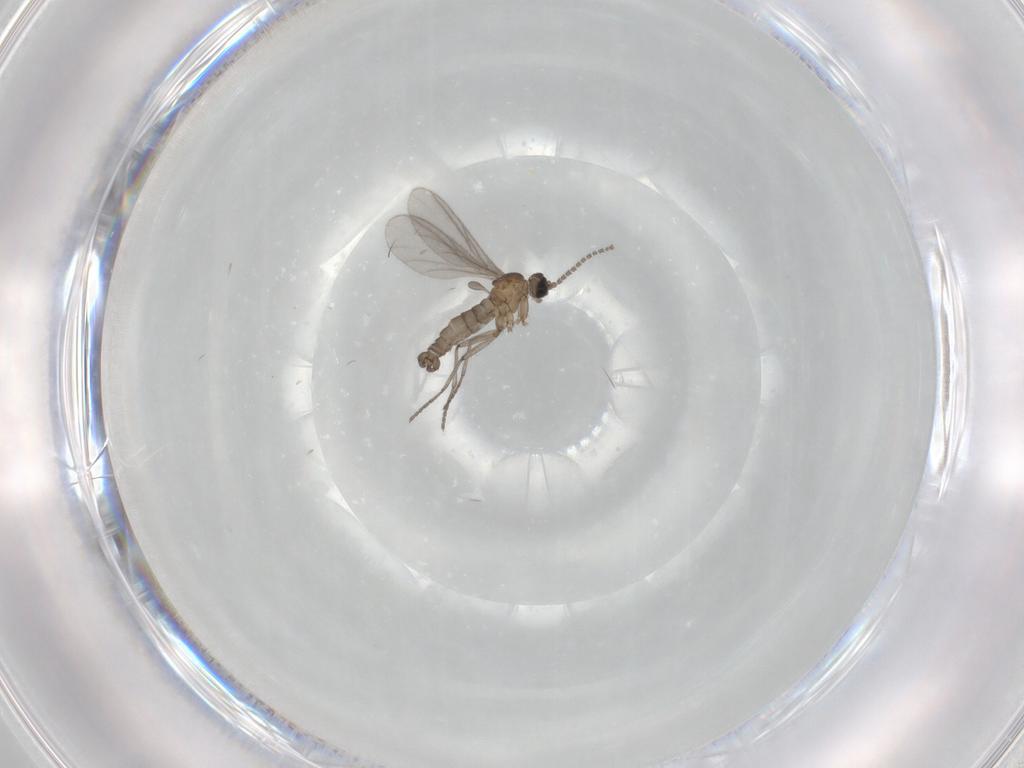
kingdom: Animalia
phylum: Arthropoda
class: Insecta
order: Diptera
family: Sciaridae
